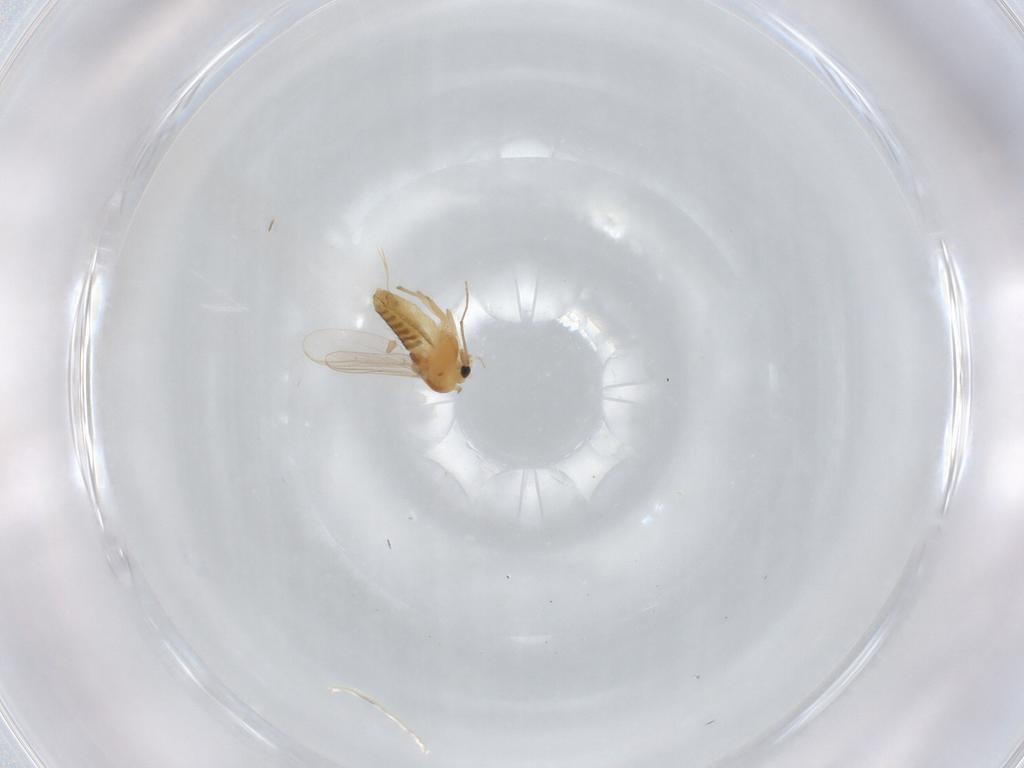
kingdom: Animalia
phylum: Arthropoda
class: Insecta
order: Diptera
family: Chironomidae
